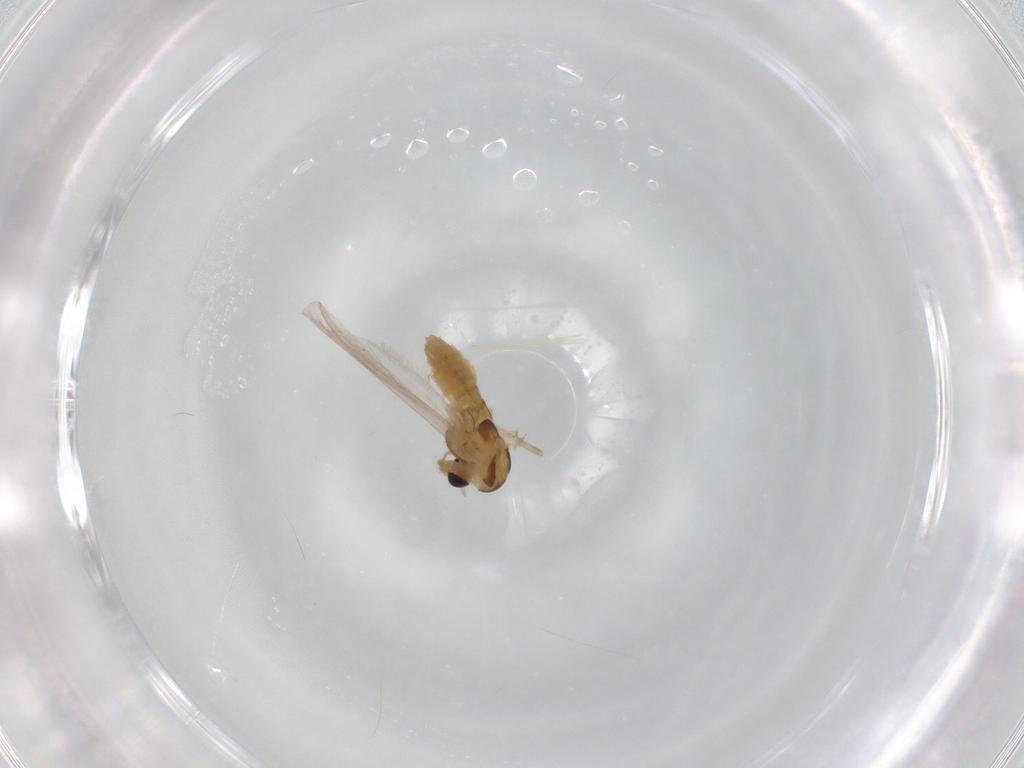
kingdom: Animalia
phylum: Arthropoda
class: Insecta
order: Diptera
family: Chironomidae
